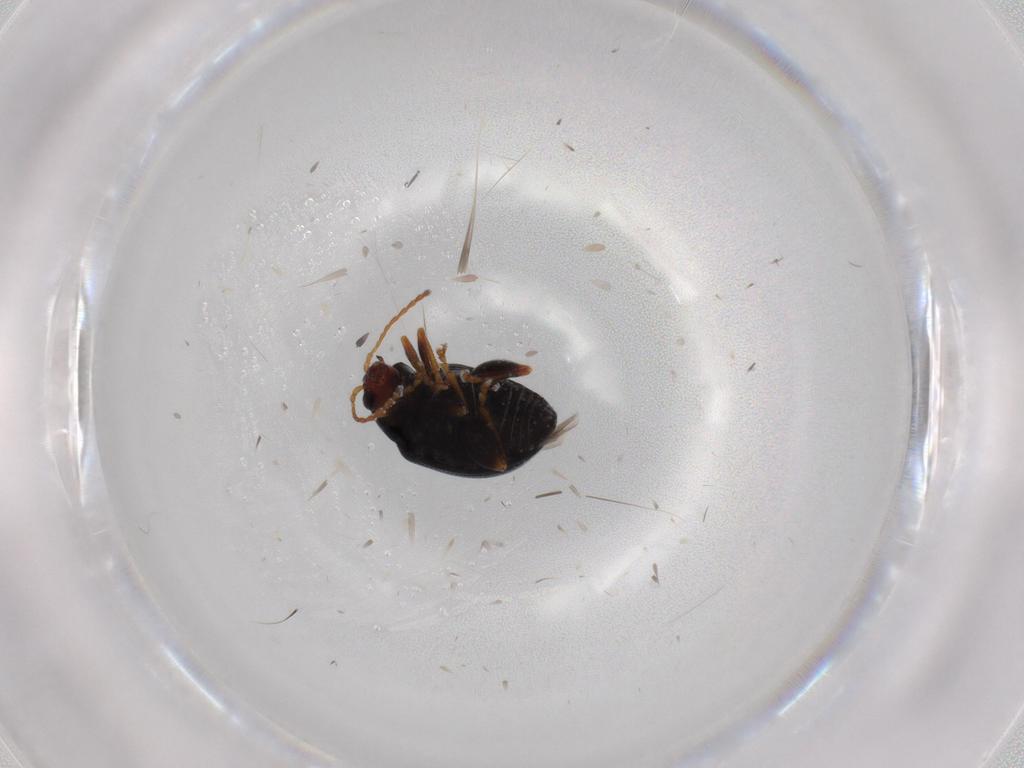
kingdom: Animalia
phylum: Arthropoda
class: Insecta
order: Coleoptera
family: Chrysomelidae
